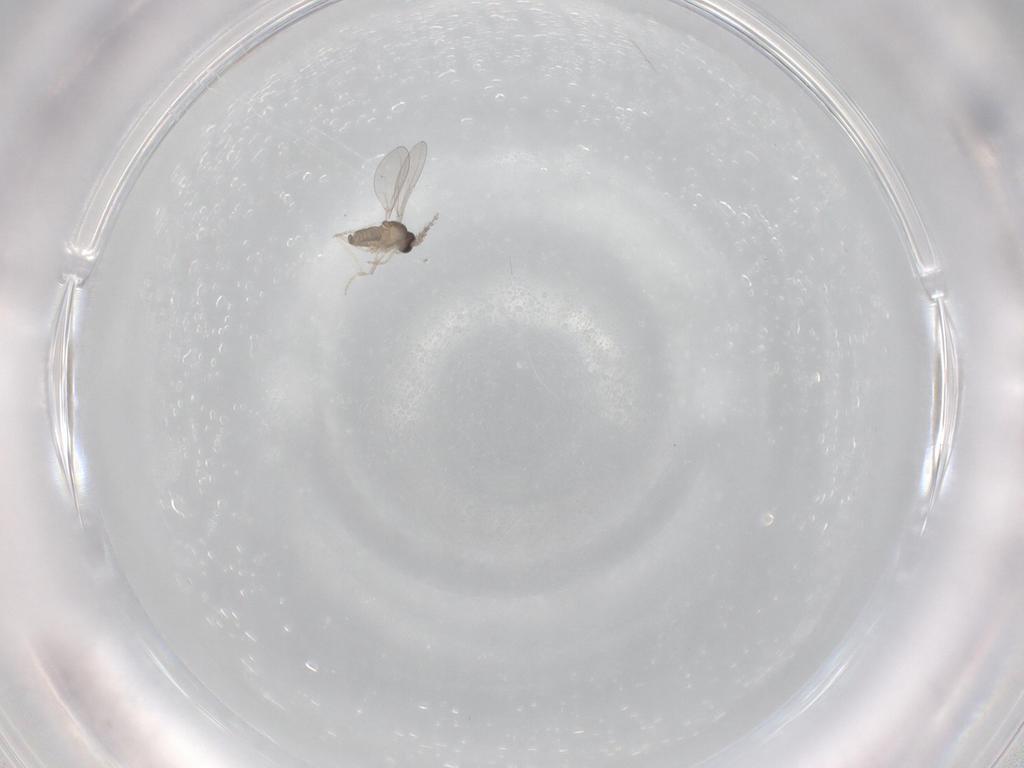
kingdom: Animalia
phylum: Arthropoda
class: Insecta
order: Diptera
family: Cecidomyiidae
